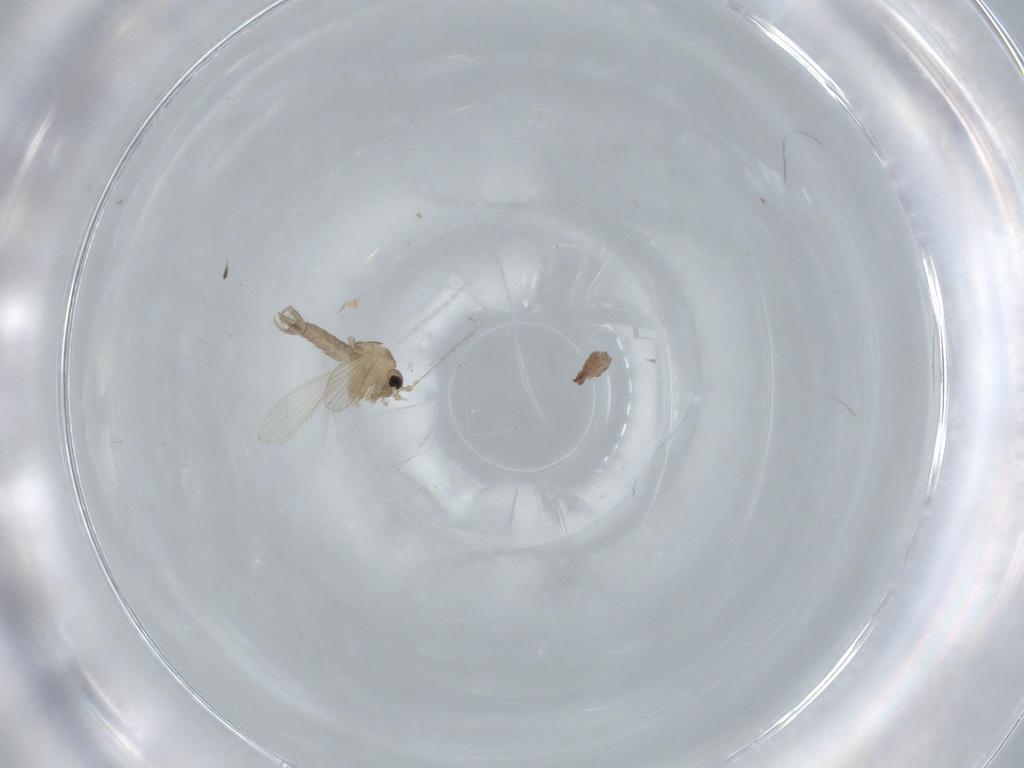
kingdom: Animalia
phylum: Arthropoda
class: Insecta
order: Diptera
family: Psychodidae
